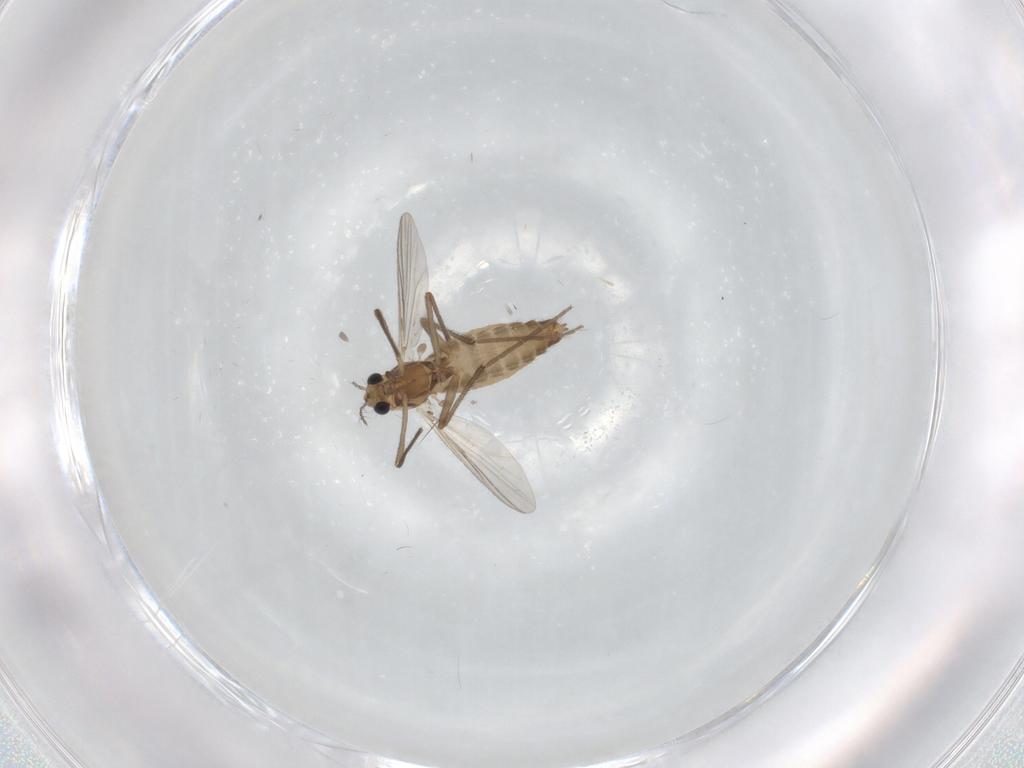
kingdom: Animalia
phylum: Arthropoda
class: Insecta
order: Diptera
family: Chironomidae
